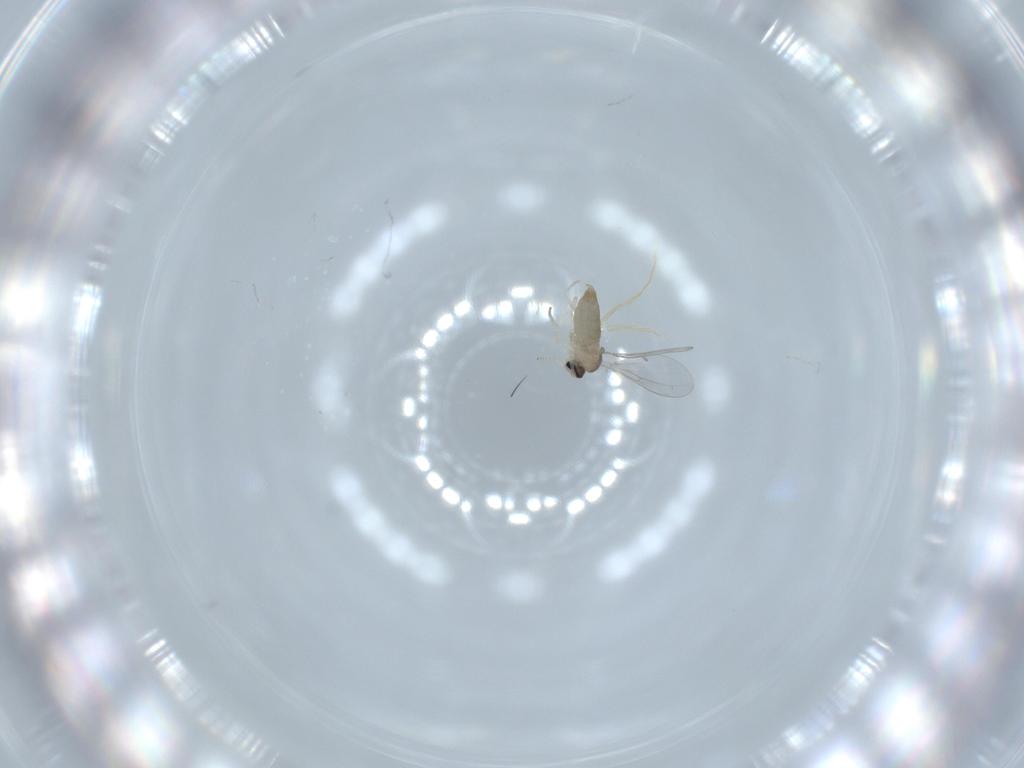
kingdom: Animalia
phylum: Arthropoda
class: Insecta
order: Diptera
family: Cecidomyiidae
